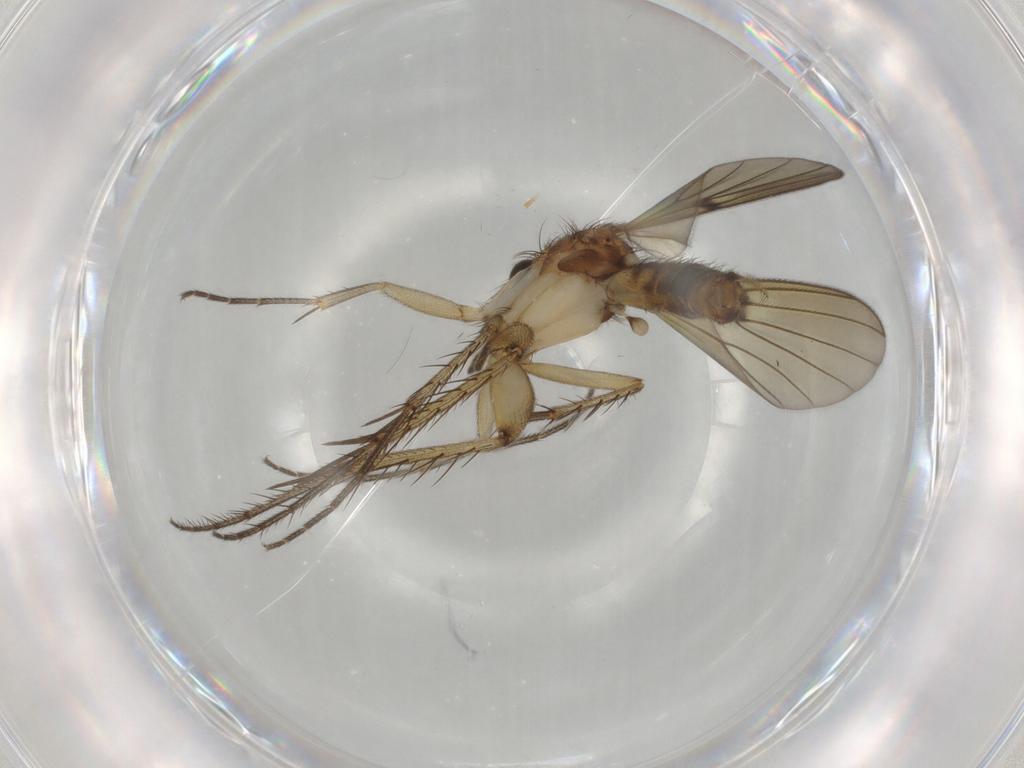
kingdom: Animalia
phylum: Arthropoda
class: Insecta
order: Diptera
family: Mycetophilidae
